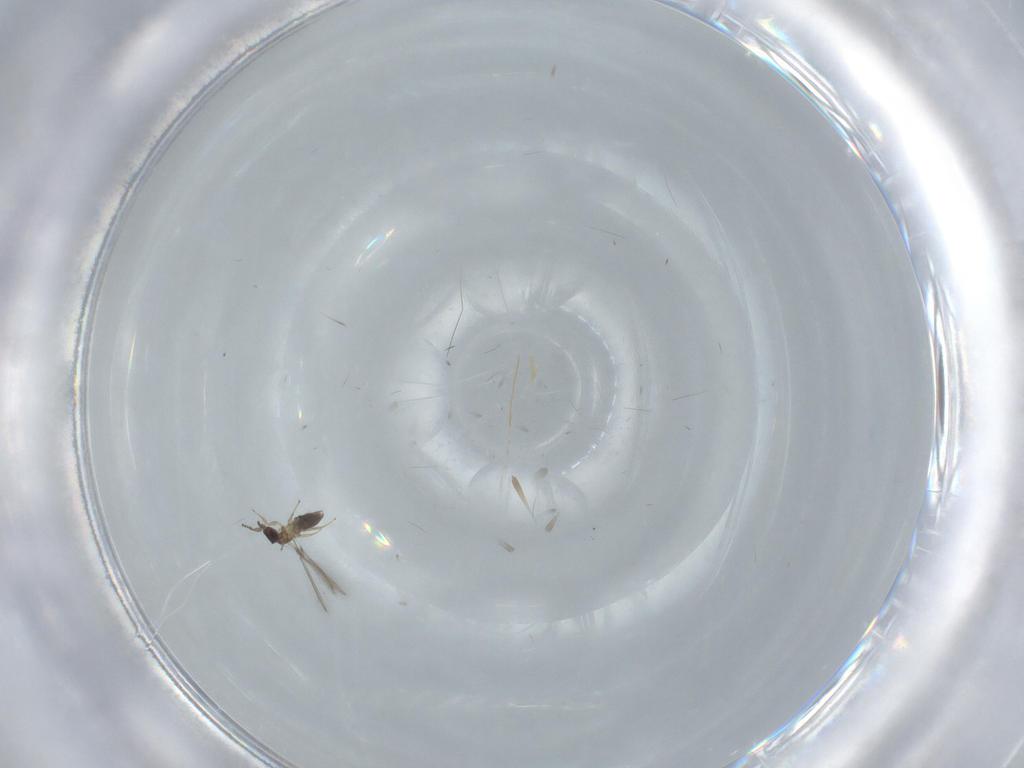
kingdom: Animalia
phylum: Arthropoda
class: Insecta
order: Hymenoptera
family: Mymaridae
